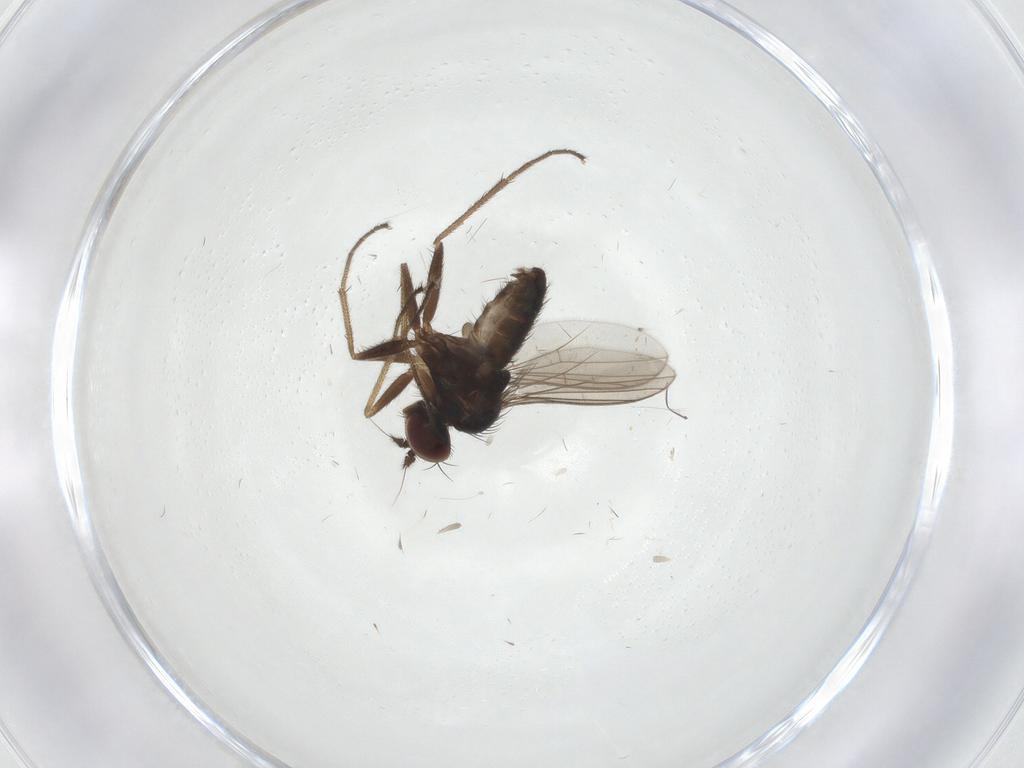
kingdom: Animalia
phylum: Arthropoda
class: Insecta
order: Diptera
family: Dolichopodidae
